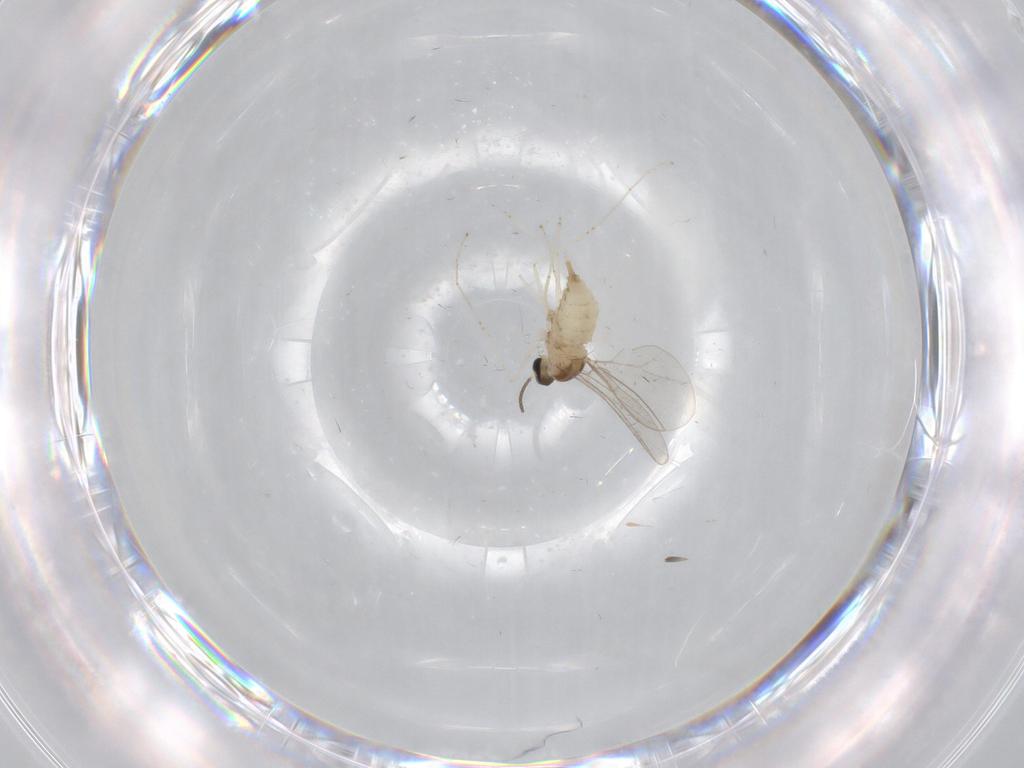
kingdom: Animalia
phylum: Arthropoda
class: Insecta
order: Diptera
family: Cecidomyiidae
